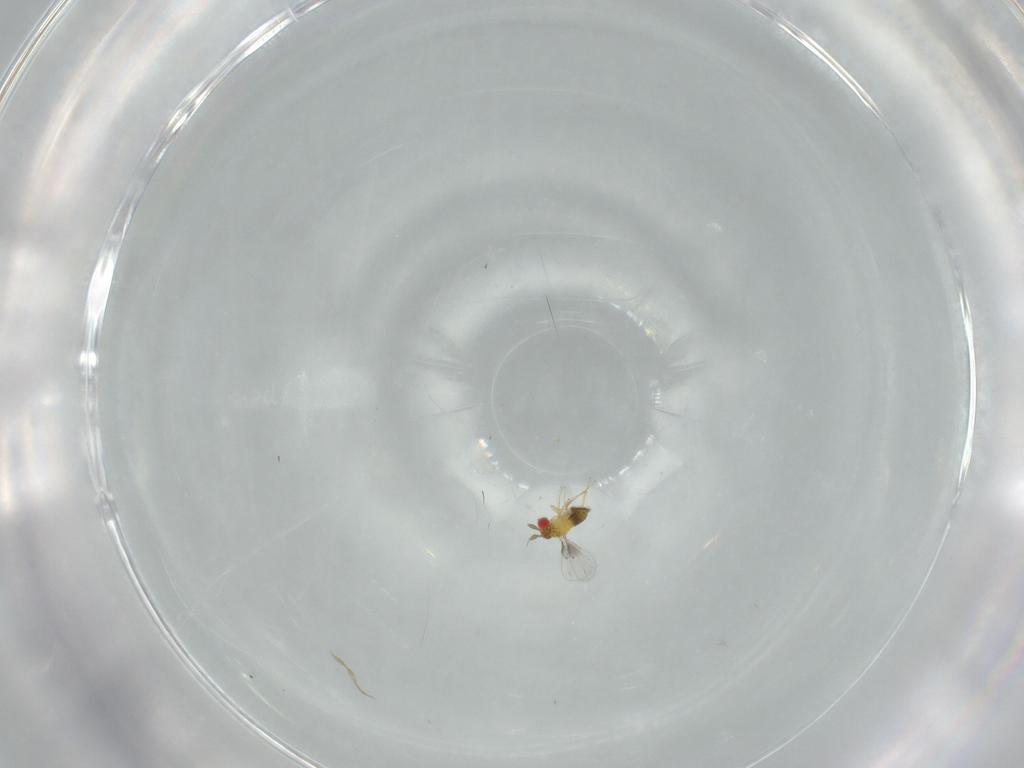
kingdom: Animalia
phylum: Arthropoda
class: Insecta
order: Hymenoptera
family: Trichogrammatidae
